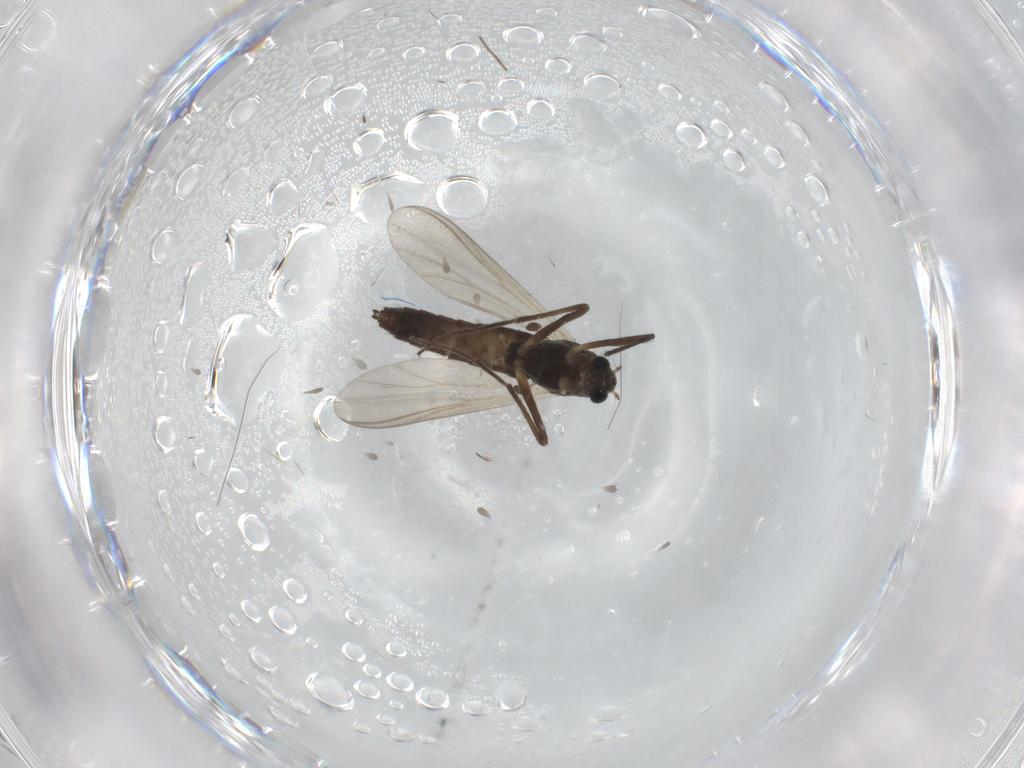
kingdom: Animalia
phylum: Arthropoda
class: Insecta
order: Diptera
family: Chironomidae
